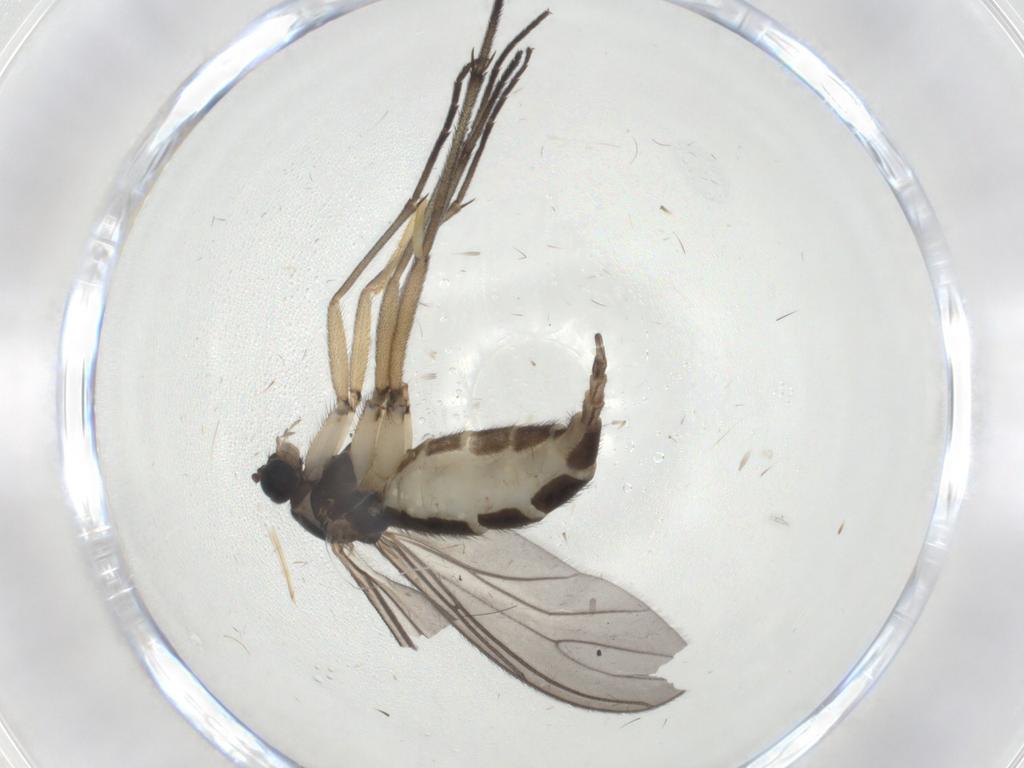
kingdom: Animalia
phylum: Arthropoda
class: Insecta
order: Diptera
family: Sciaridae
